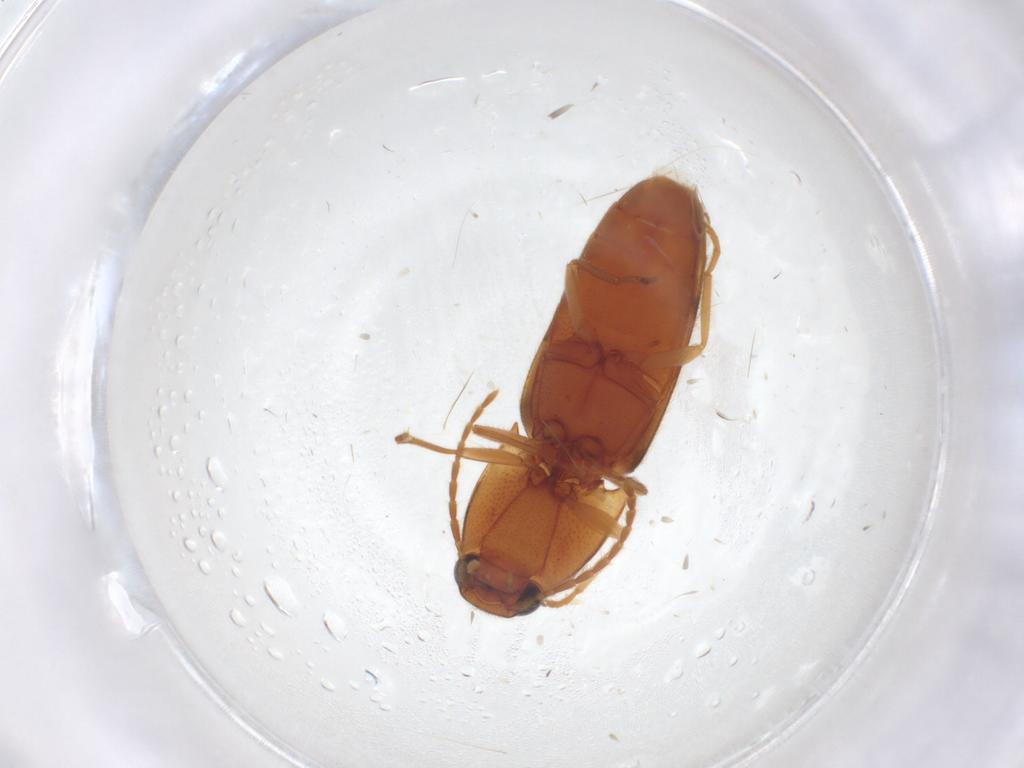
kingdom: Animalia
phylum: Arthropoda
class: Insecta
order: Coleoptera
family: Elateridae
